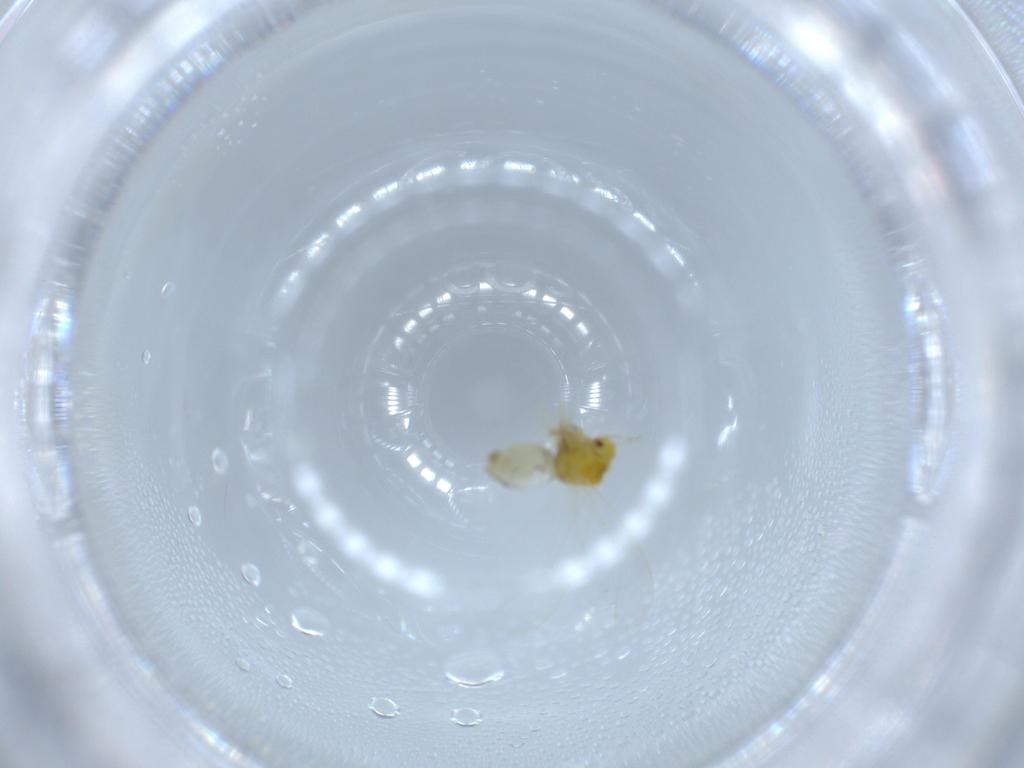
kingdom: Animalia
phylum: Arthropoda
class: Insecta
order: Hemiptera
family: Aleyrodidae
